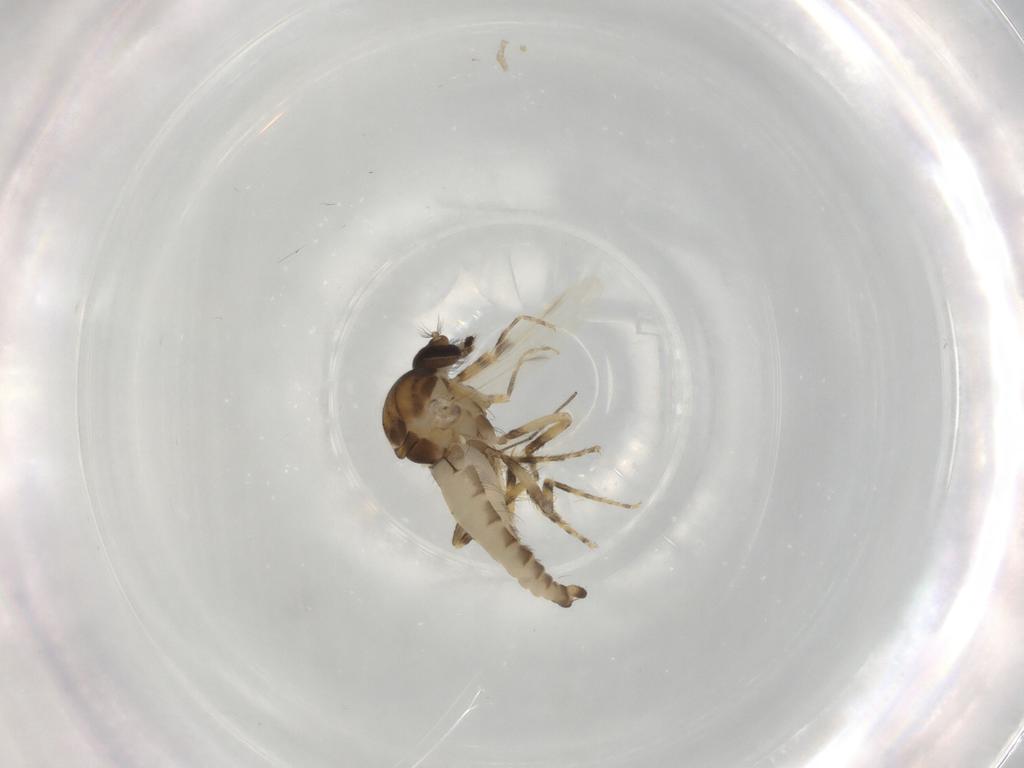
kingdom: Animalia
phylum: Arthropoda
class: Insecta
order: Diptera
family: Ceratopogonidae
